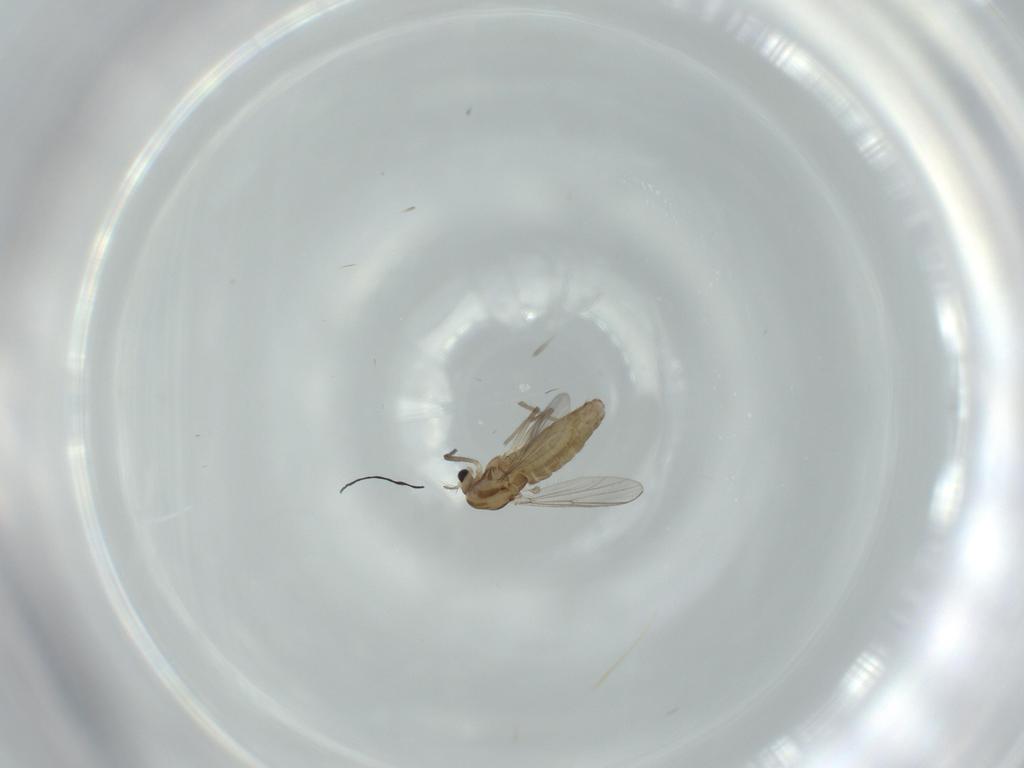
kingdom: Animalia
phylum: Arthropoda
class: Insecta
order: Diptera
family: Chironomidae
